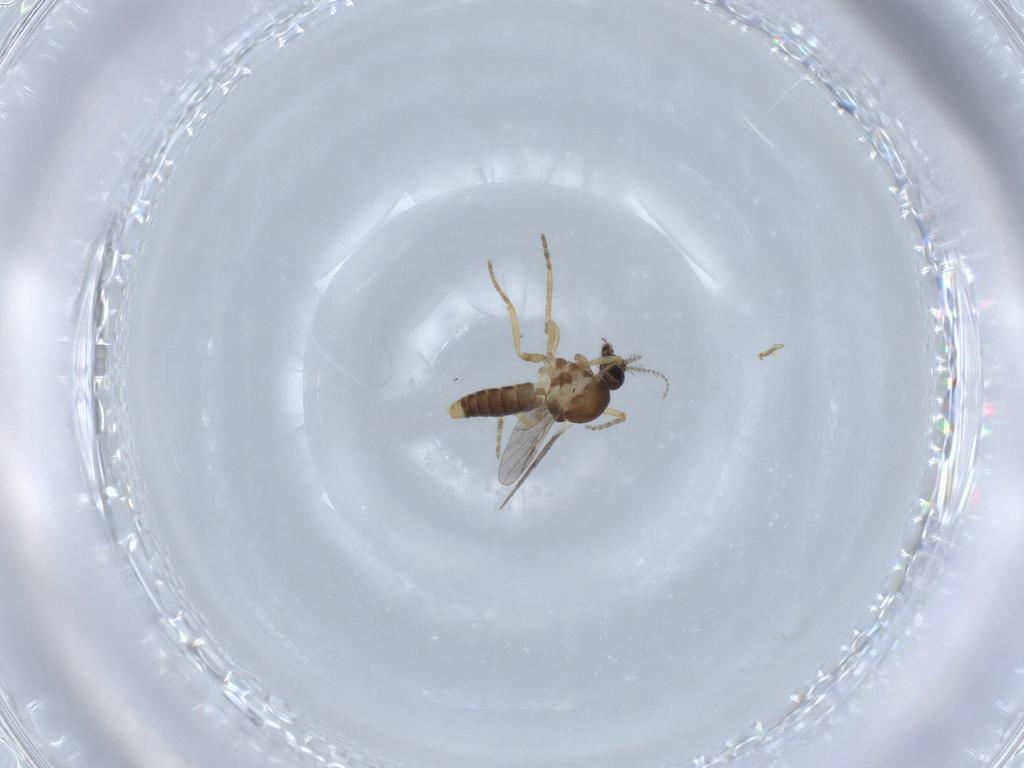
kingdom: Animalia
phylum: Arthropoda
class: Insecta
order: Diptera
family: Ceratopogonidae
